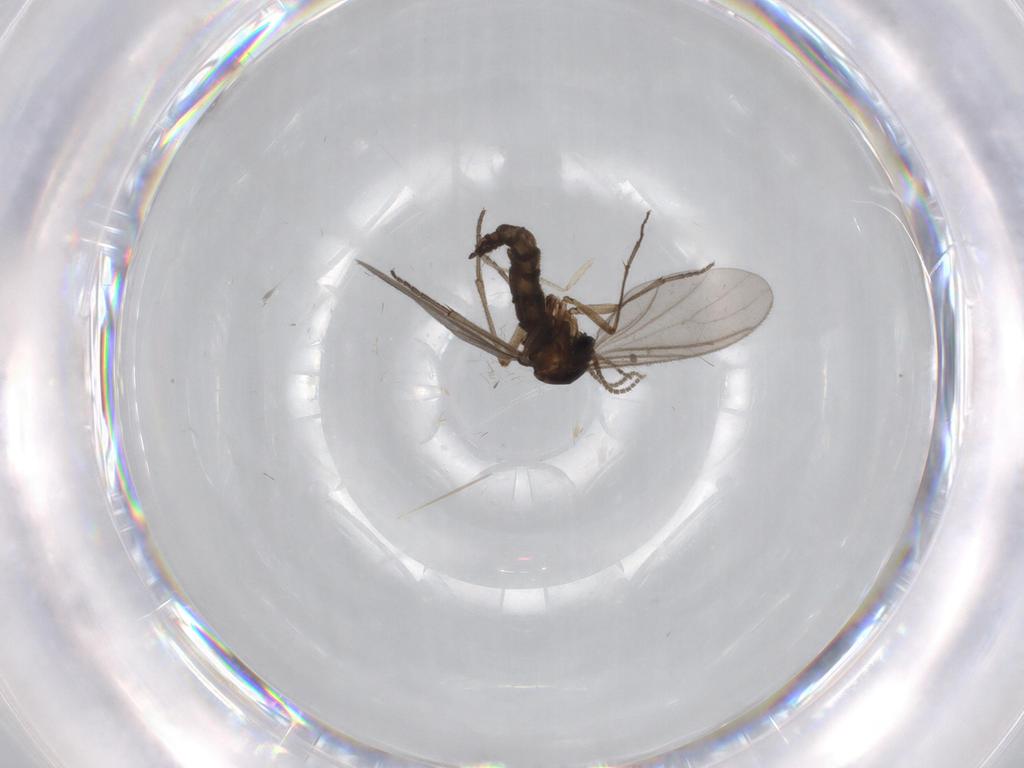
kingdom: Animalia
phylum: Arthropoda
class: Insecta
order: Diptera
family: Sciaridae
